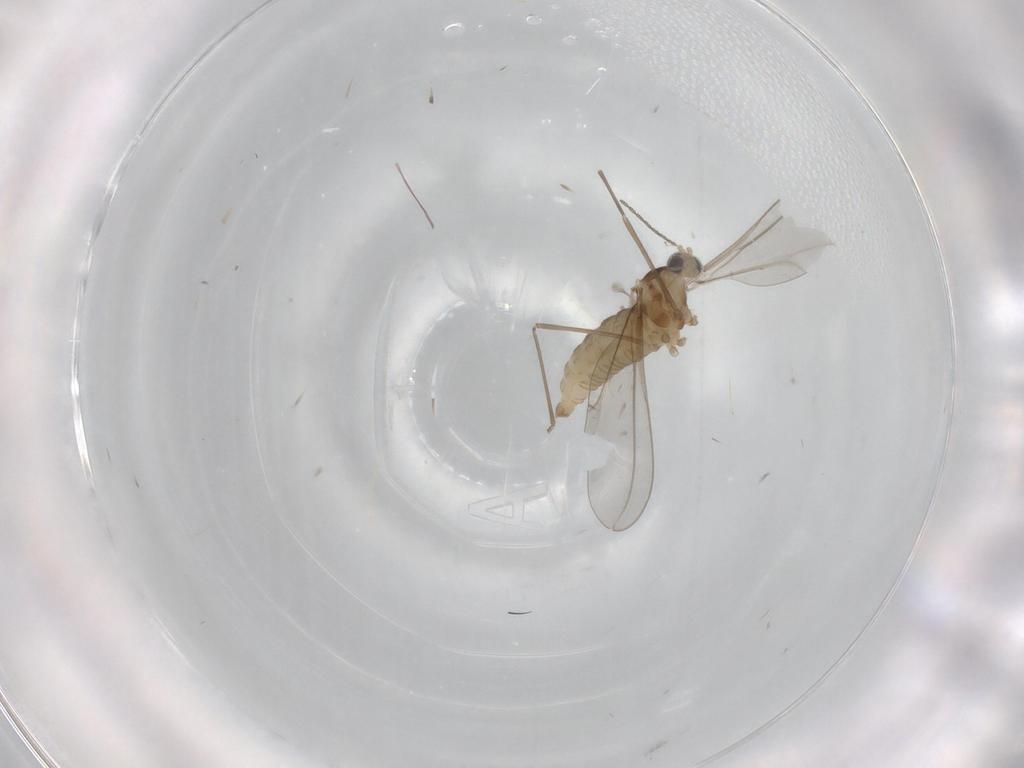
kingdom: Animalia
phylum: Arthropoda
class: Insecta
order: Diptera
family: Cecidomyiidae
